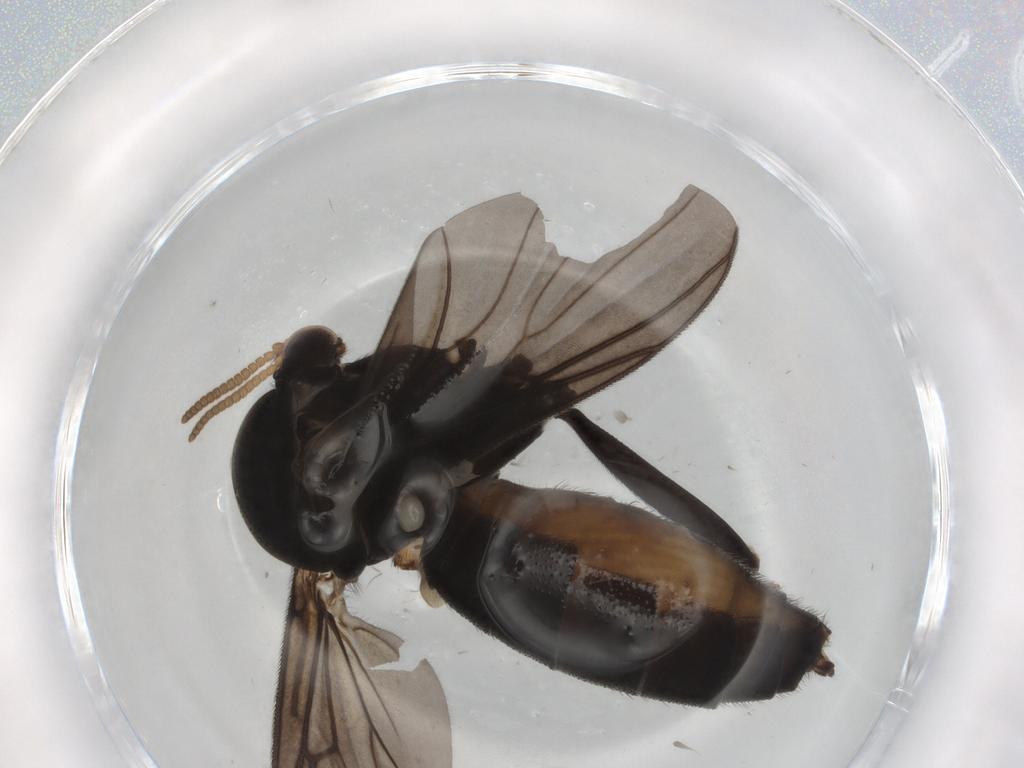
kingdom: Animalia
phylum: Arthropoda
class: Insecta
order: Diptera
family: Mycetophilidae
